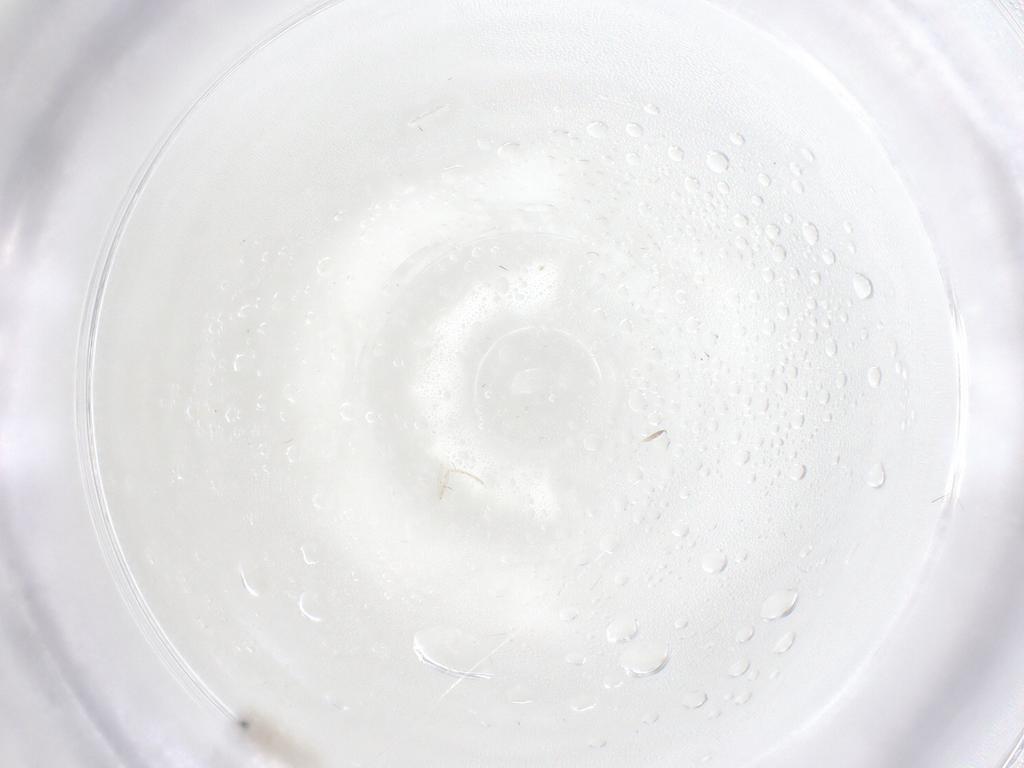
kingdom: Animalia
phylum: Arthropoda
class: Insecta
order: Diptera
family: Cecidomyiidae
